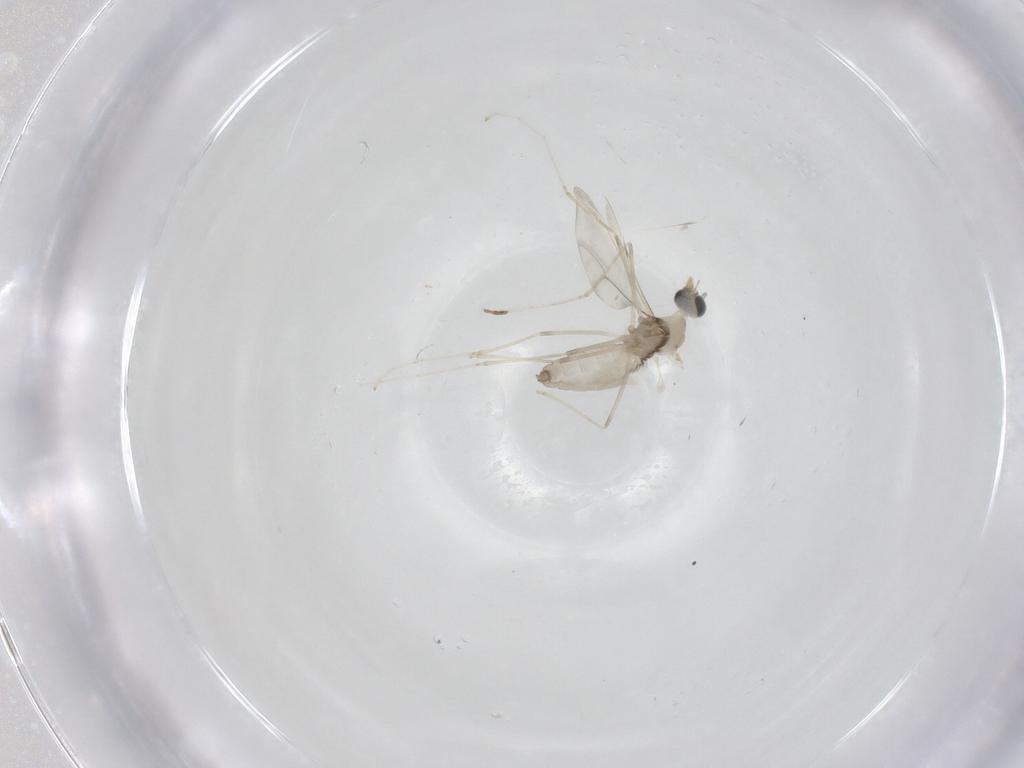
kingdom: Animalia
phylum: Arthropoda
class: Insecta
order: Diptera
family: Cecidomyiidae
